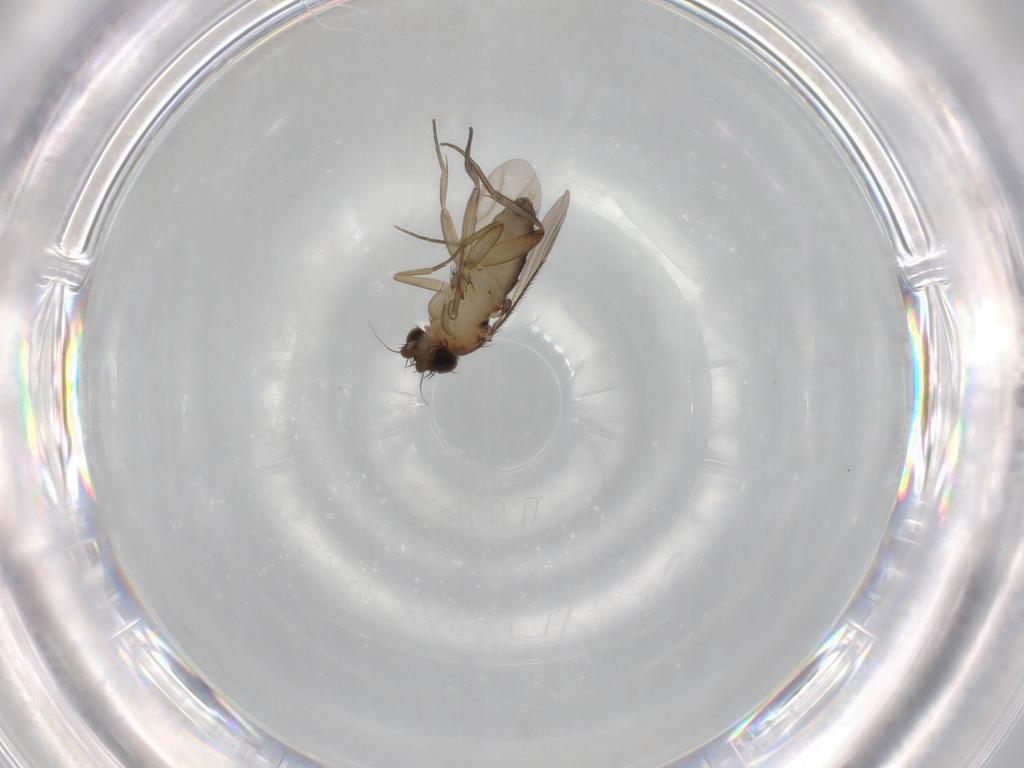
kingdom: Animalia
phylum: Arthropoda
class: Insecta
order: Diptera
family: Phoridae
